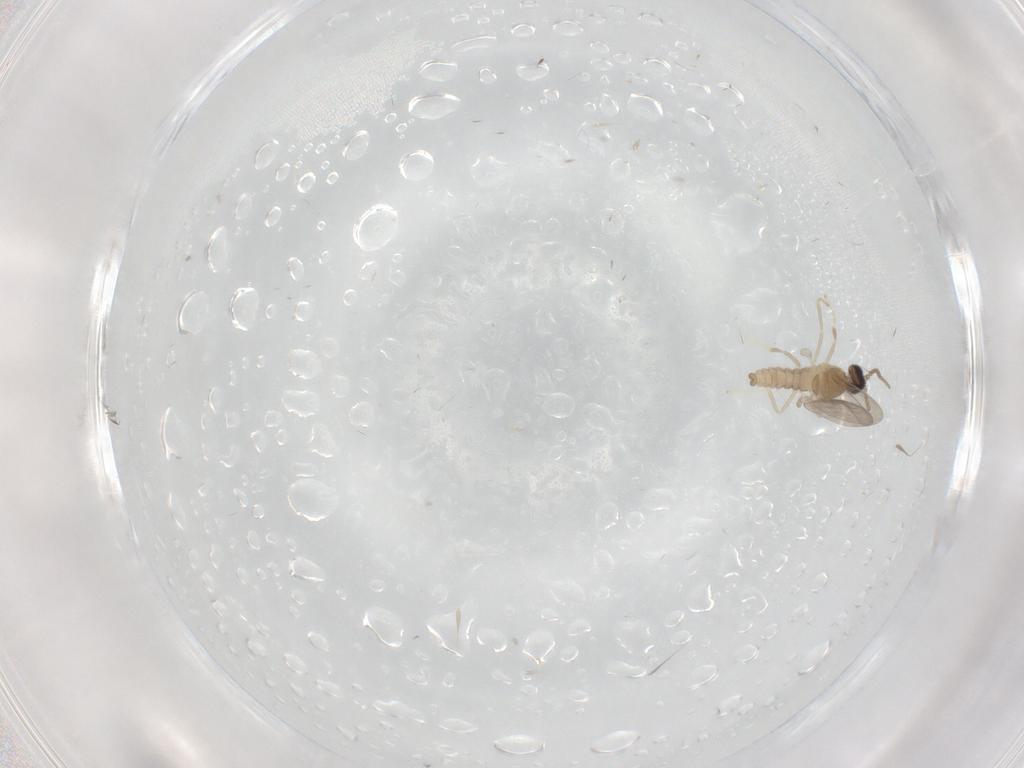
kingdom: Animalia
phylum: Arthropoda
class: Insecta
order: Diptera
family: Cecidomyiidae
